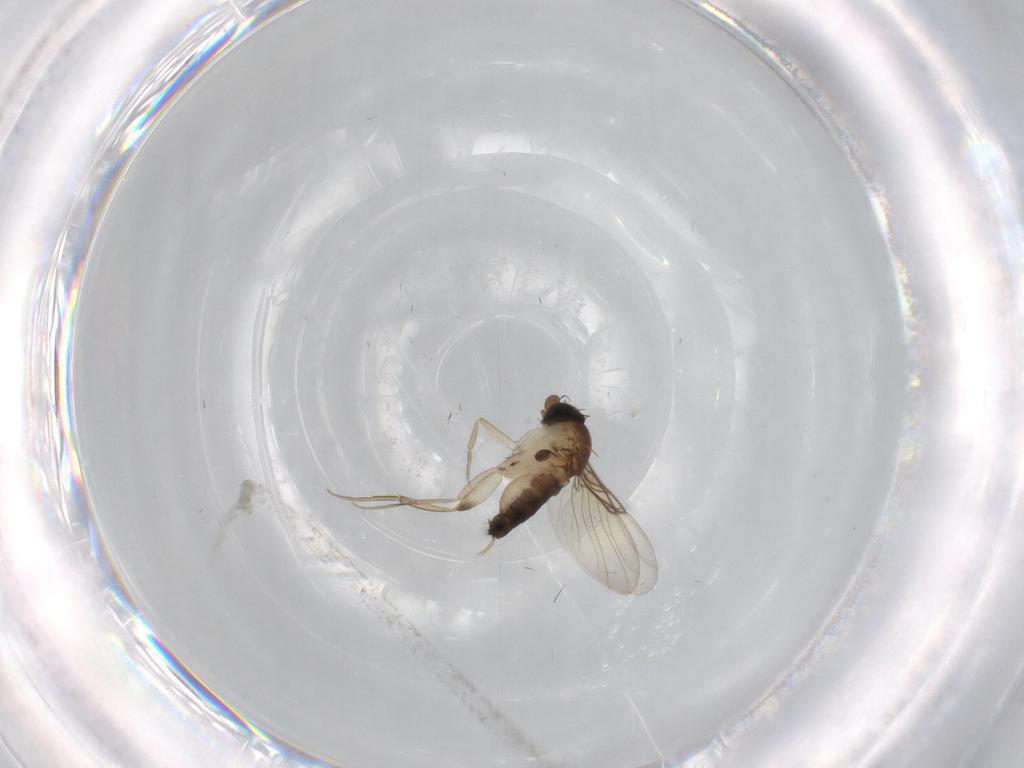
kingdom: Animalia
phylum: Arthropoda
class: Insecta
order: Diptera
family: Phoridae
